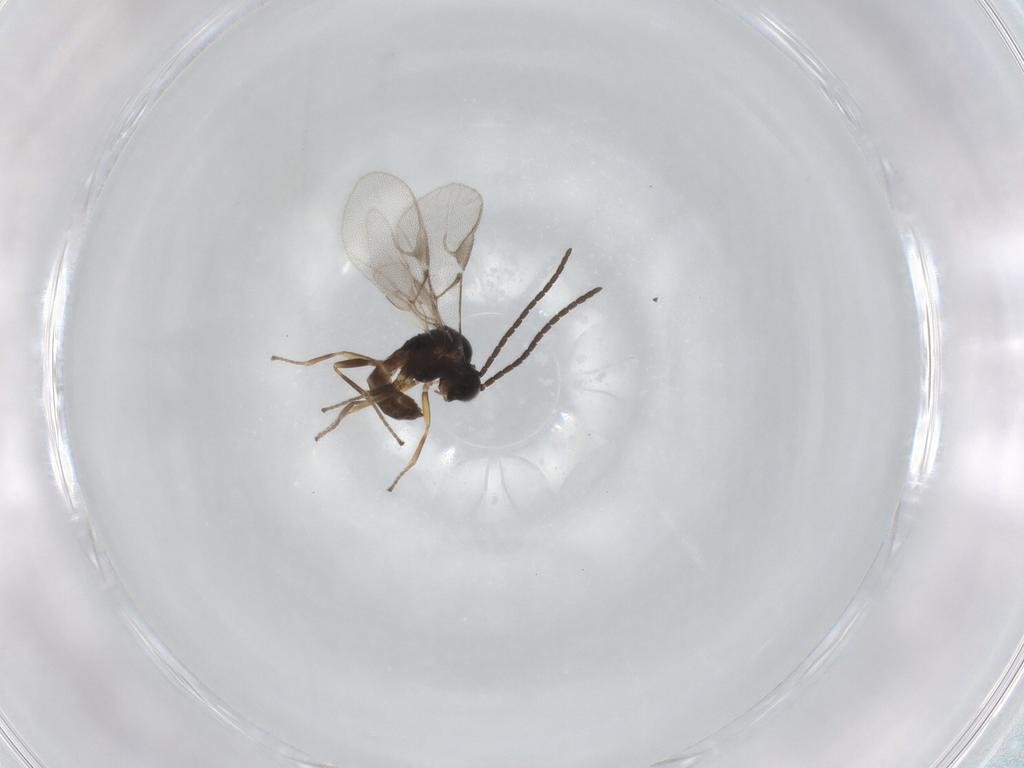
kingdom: Animalia
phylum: Arthropoda
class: Insecta
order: Hymenoptera
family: Braconidae
